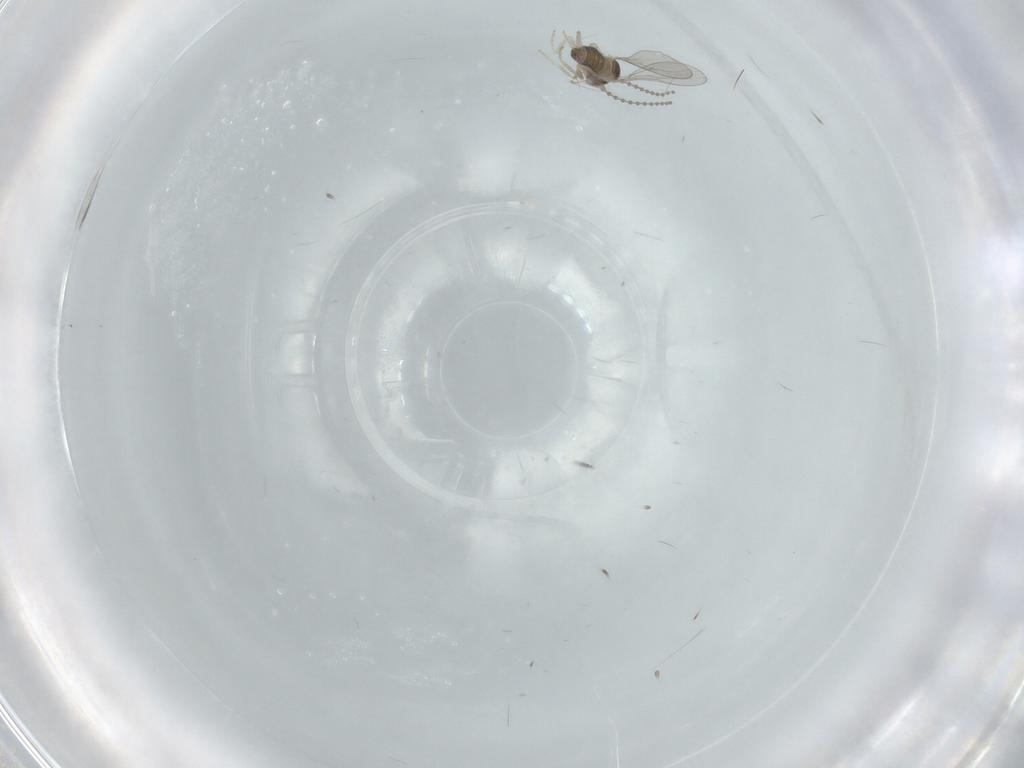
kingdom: Animalia
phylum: Arthropoda
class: Insecta
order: Diptera
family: Cecidomyiidae
